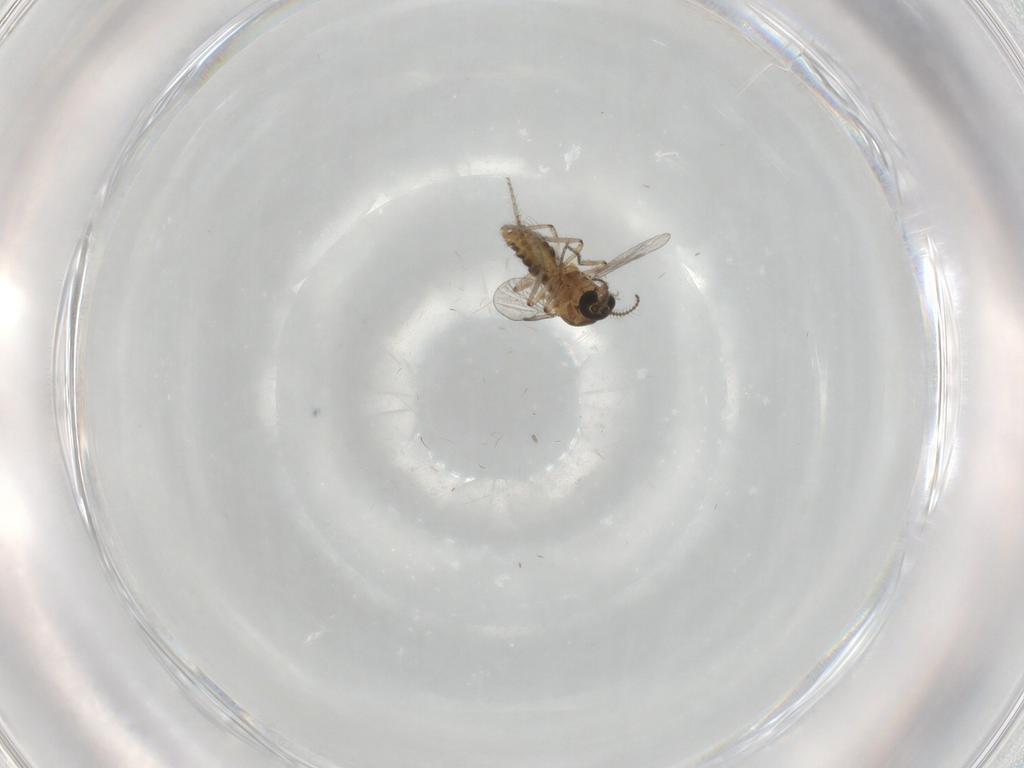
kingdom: Animalia
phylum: Arthropoda
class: Insecta
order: Diptera
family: Ceratopogonidae
